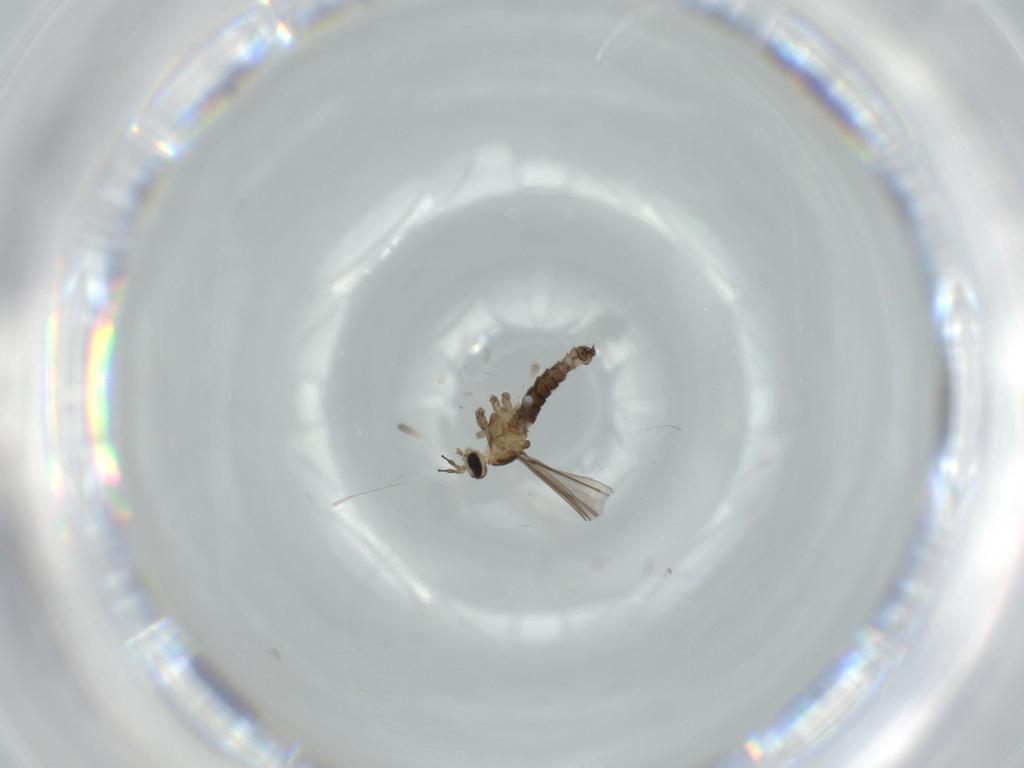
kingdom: Animalia
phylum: Arthropoda
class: Insecta
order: Diptera
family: Cecidomyiidae
